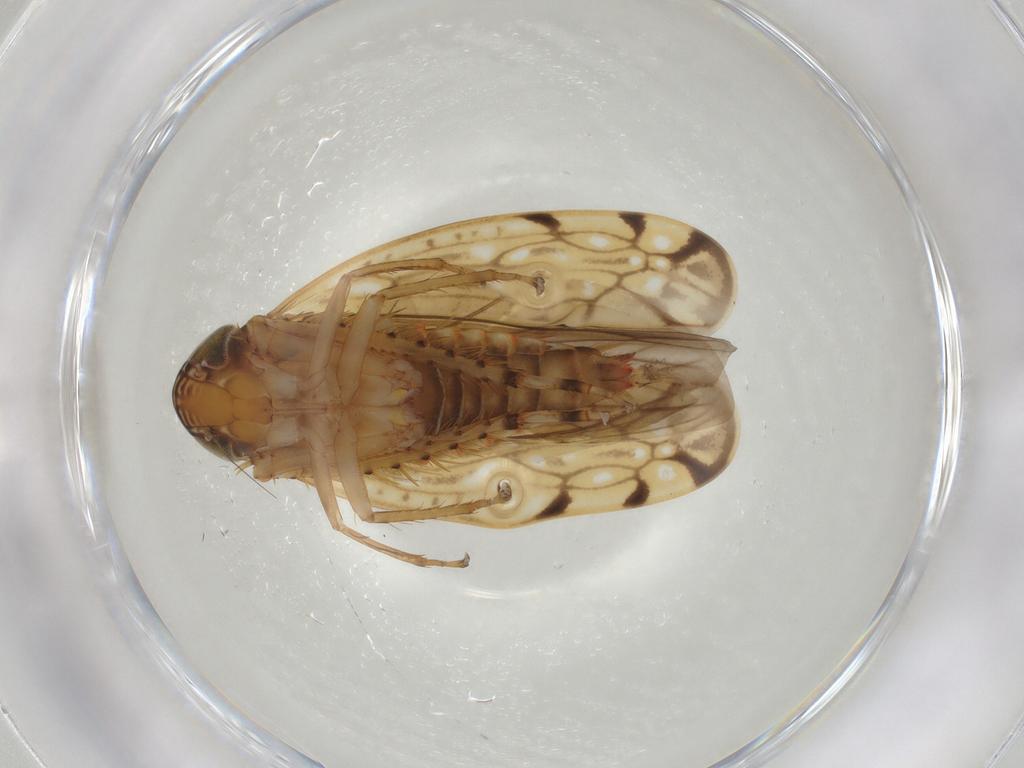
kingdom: Animalia
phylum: Arthropoda
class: Insecta
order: Hemiptera
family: Cicadellidae
